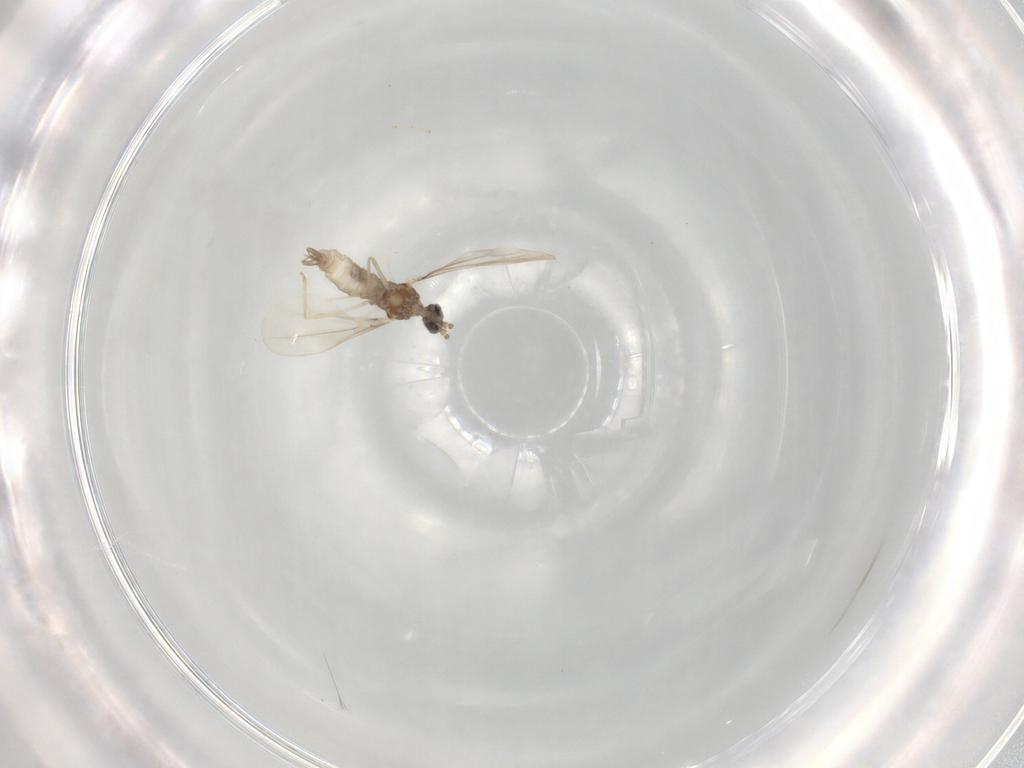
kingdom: Animalia
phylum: Arthropoda
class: Insecta
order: Diptera
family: Cecidomyiidae
